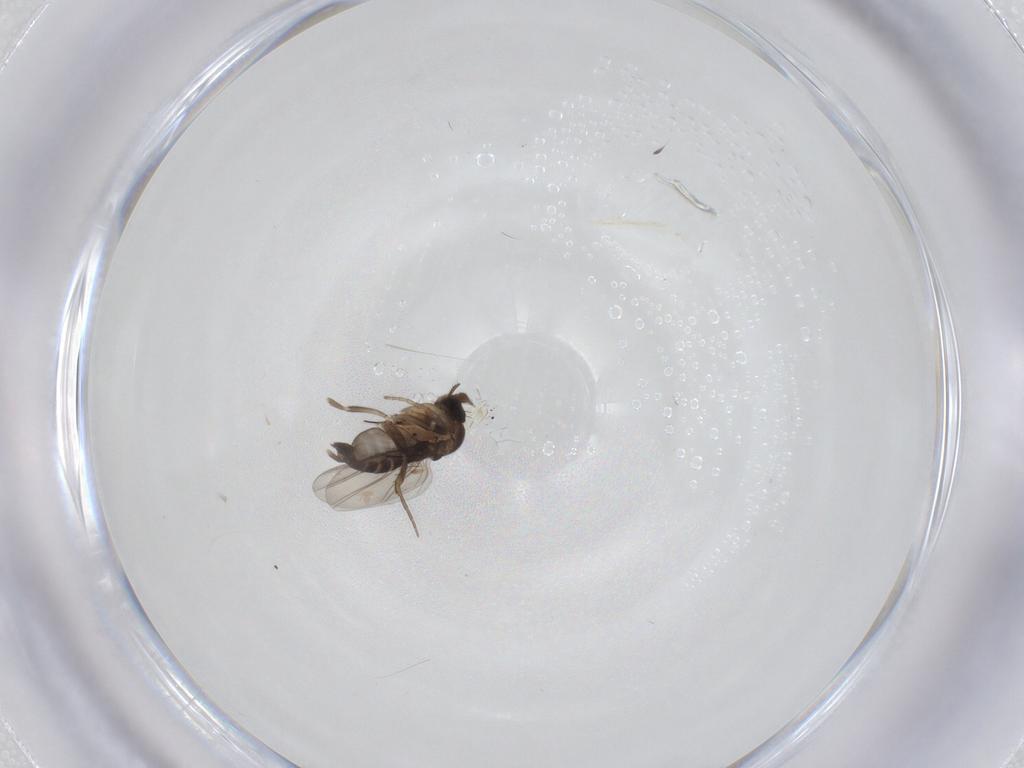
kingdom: Animalia
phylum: Arthropoda
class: Insecta
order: Diptera
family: Phoridae
